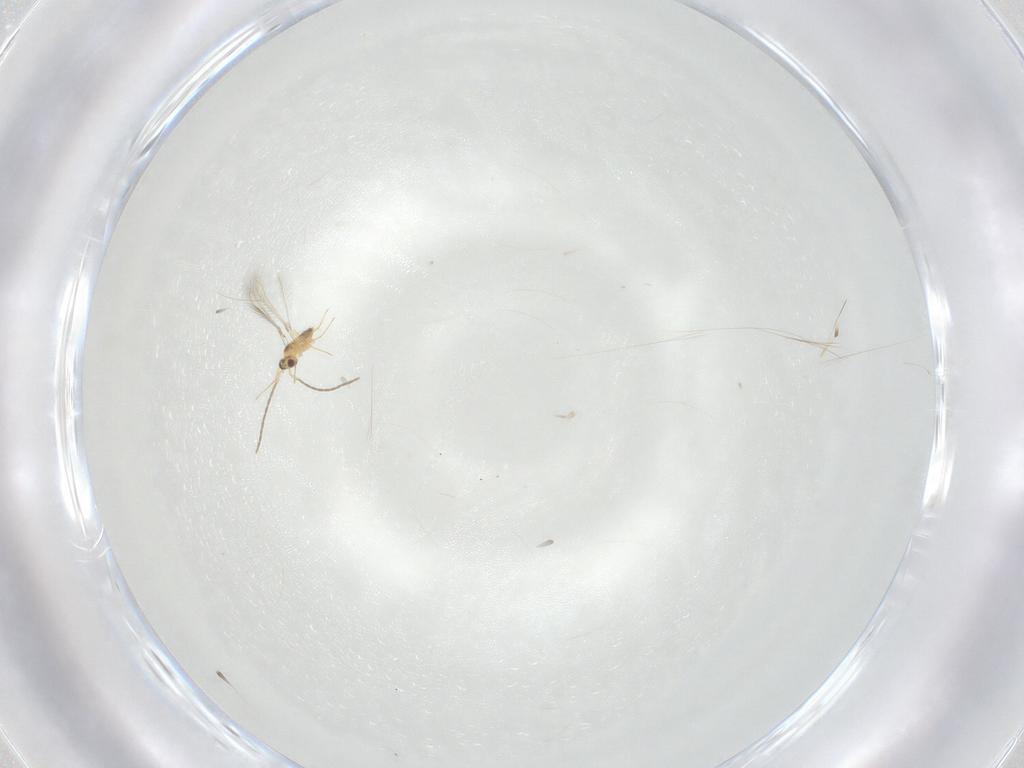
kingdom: Animalia
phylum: Arthropoda
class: Insecta
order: Hymenoptera
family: Mymaridae
